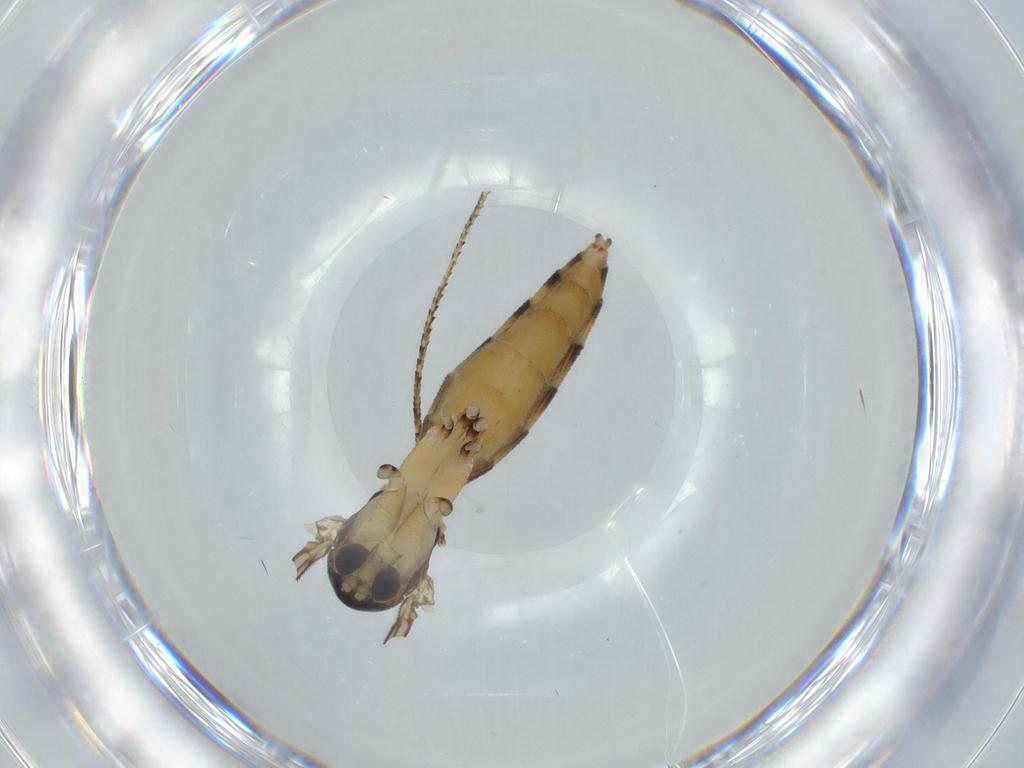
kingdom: Animalia
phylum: Arthropoda
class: Insecta
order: Diptera
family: Mycetophilidae
